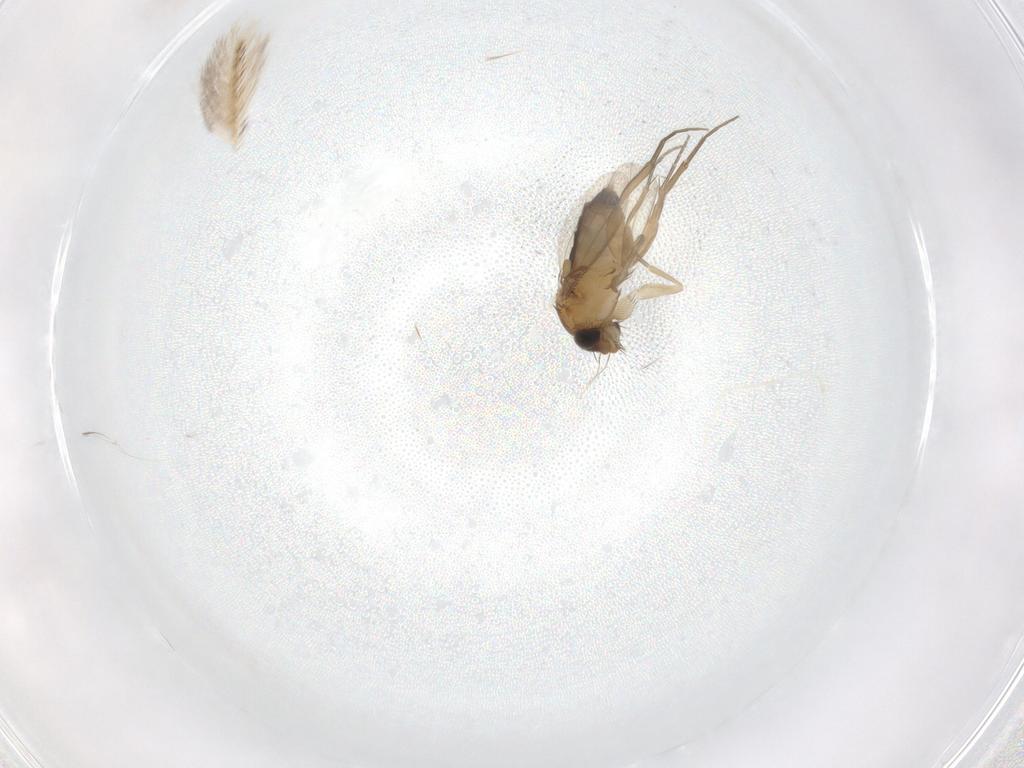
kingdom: Animalia
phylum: Arthropoda
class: Insecta
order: Diptera
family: Phoridae
